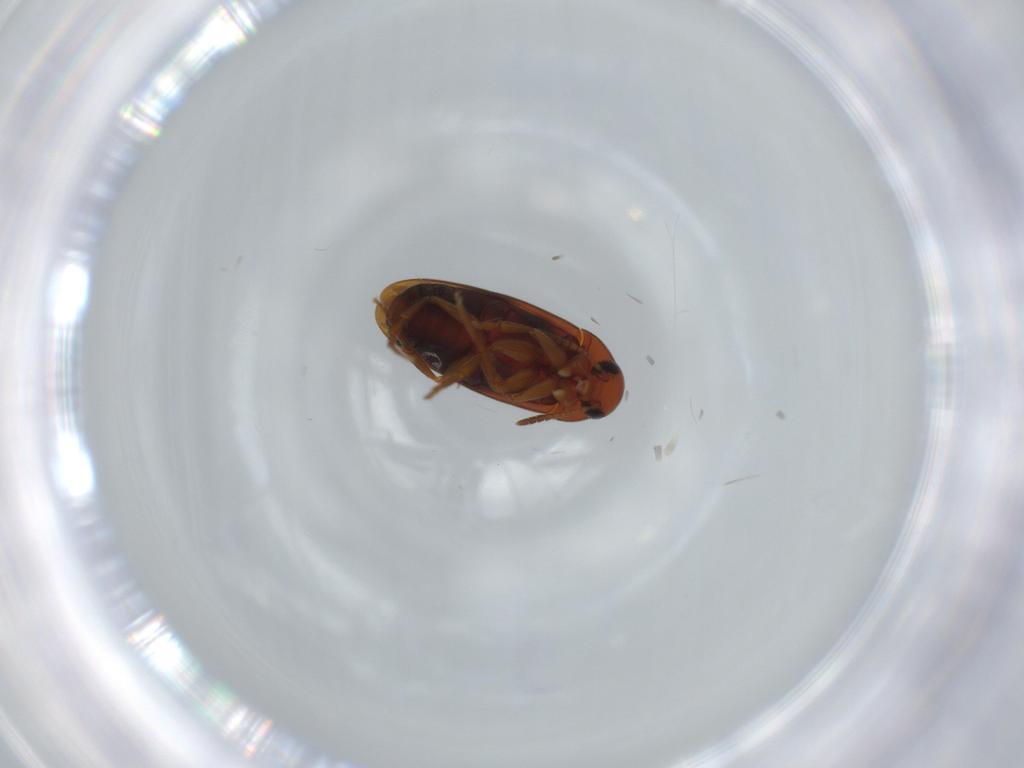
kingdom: Animalia
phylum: Arthropoda
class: Insecta
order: Coleoptera
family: Scraptiidae
